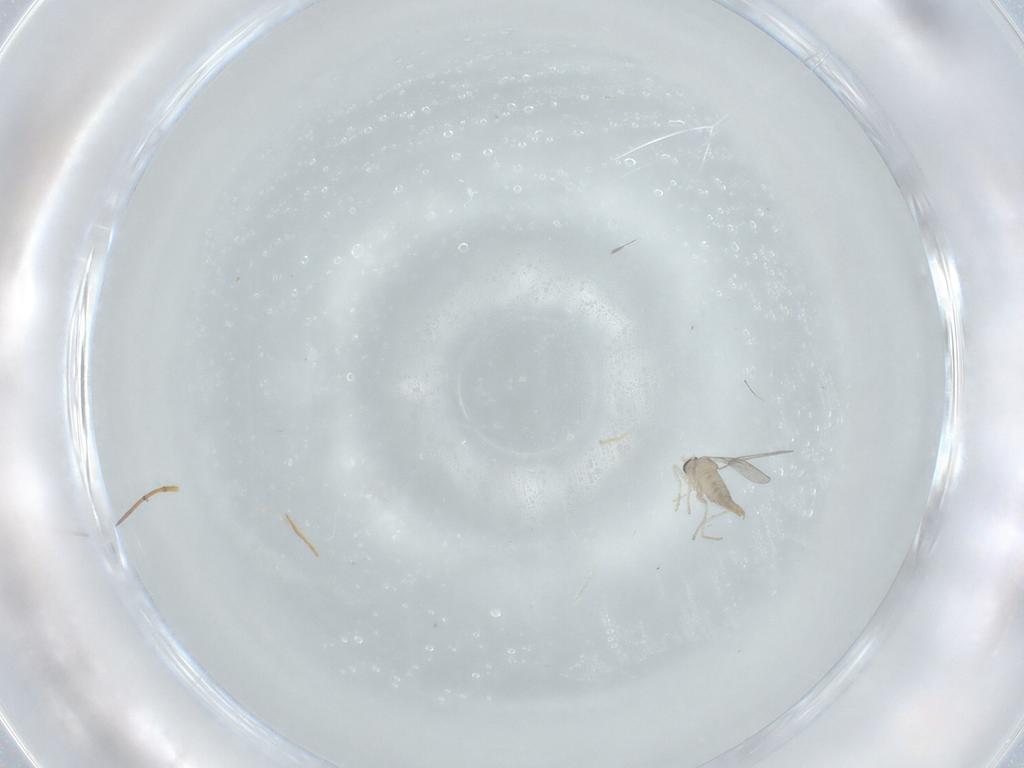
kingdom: Animalia
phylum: Arthropoda
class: Insecta
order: Diptera
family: Cecidomyiidae
